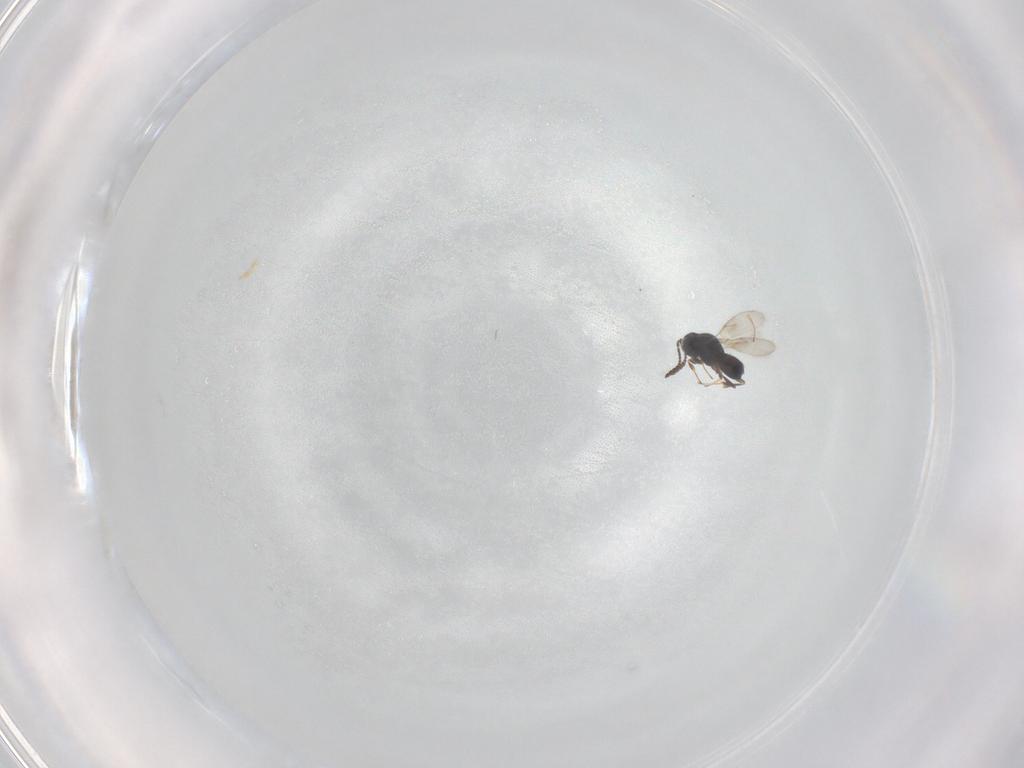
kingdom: Animalia
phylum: Arthropoda
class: Insecta
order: Hymenoptera
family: Scelionidae
